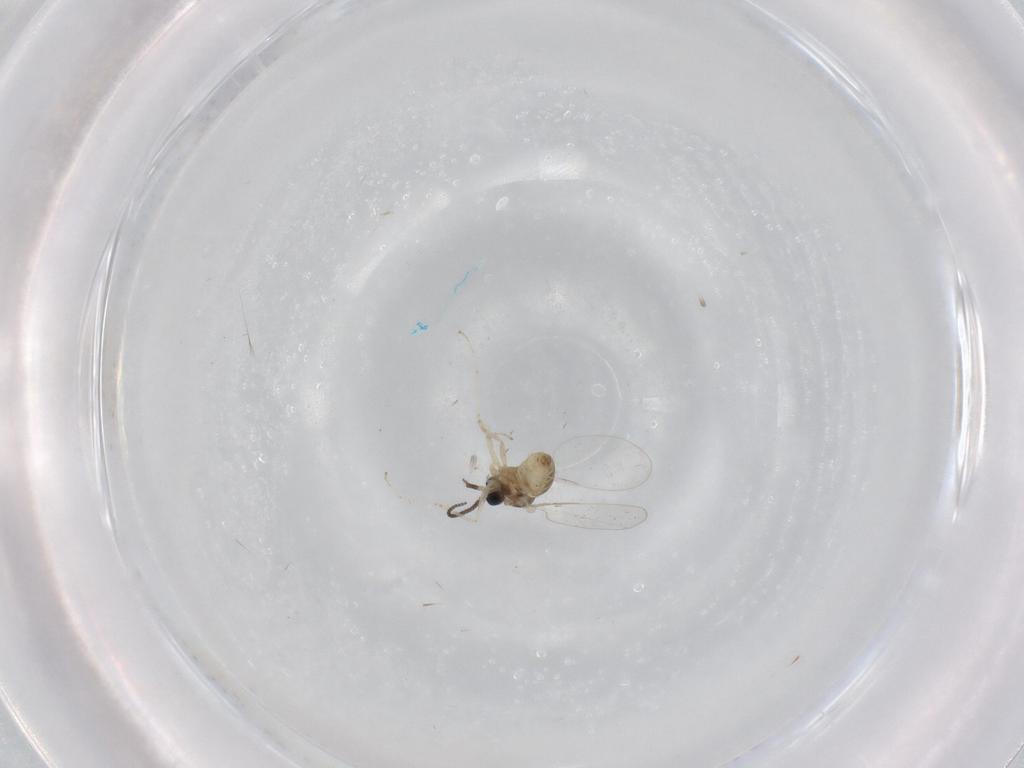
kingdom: Animalia
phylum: Arthropoda
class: Insecta
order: Diptera
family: Cecidomyiidae
